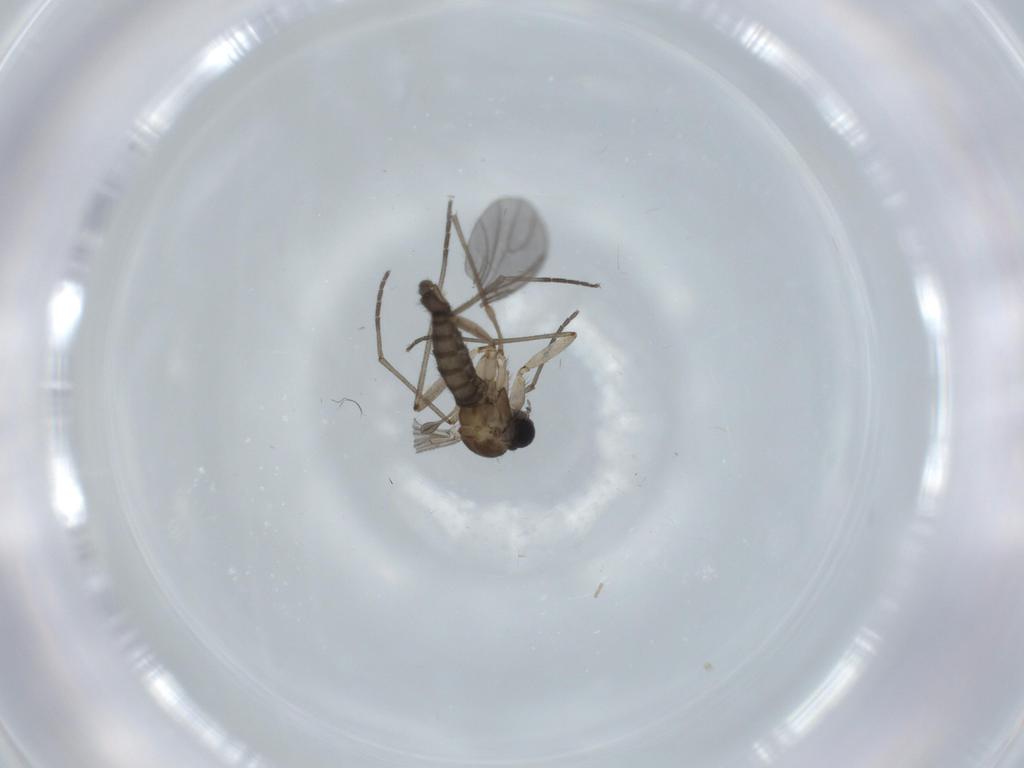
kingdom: Animalia
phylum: Arthropoda
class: Insecta
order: Diptera
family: Sciaridae
